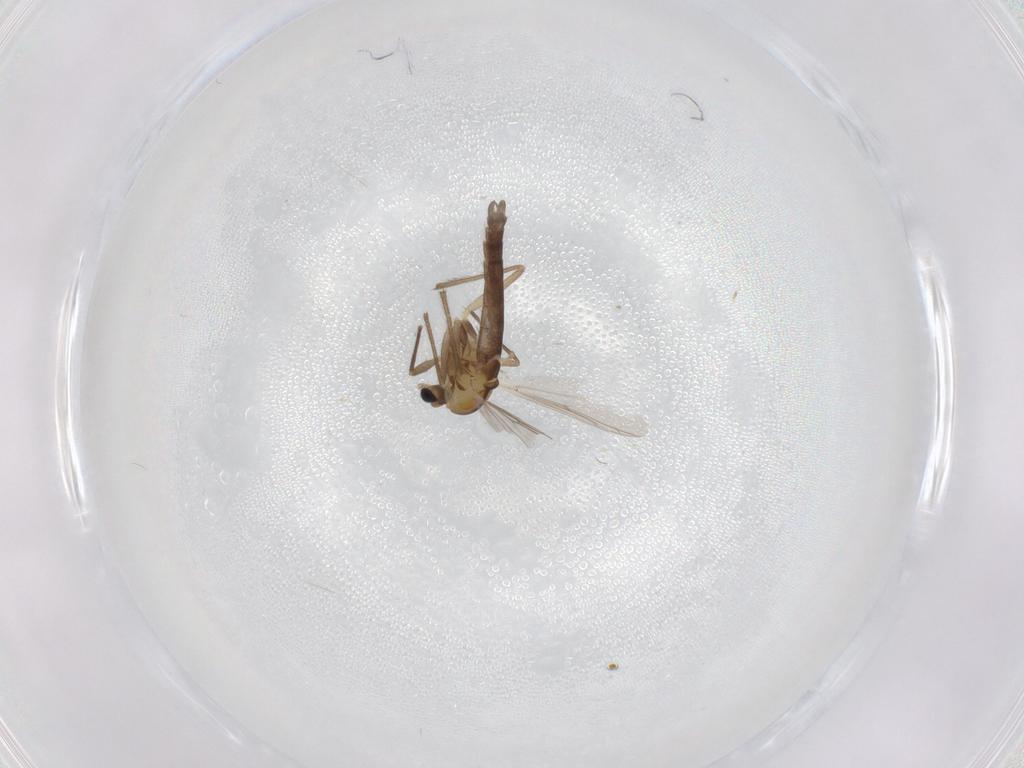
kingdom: Animalia
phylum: Arthropoda
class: Insecta
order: Diptera
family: Chironomidae
